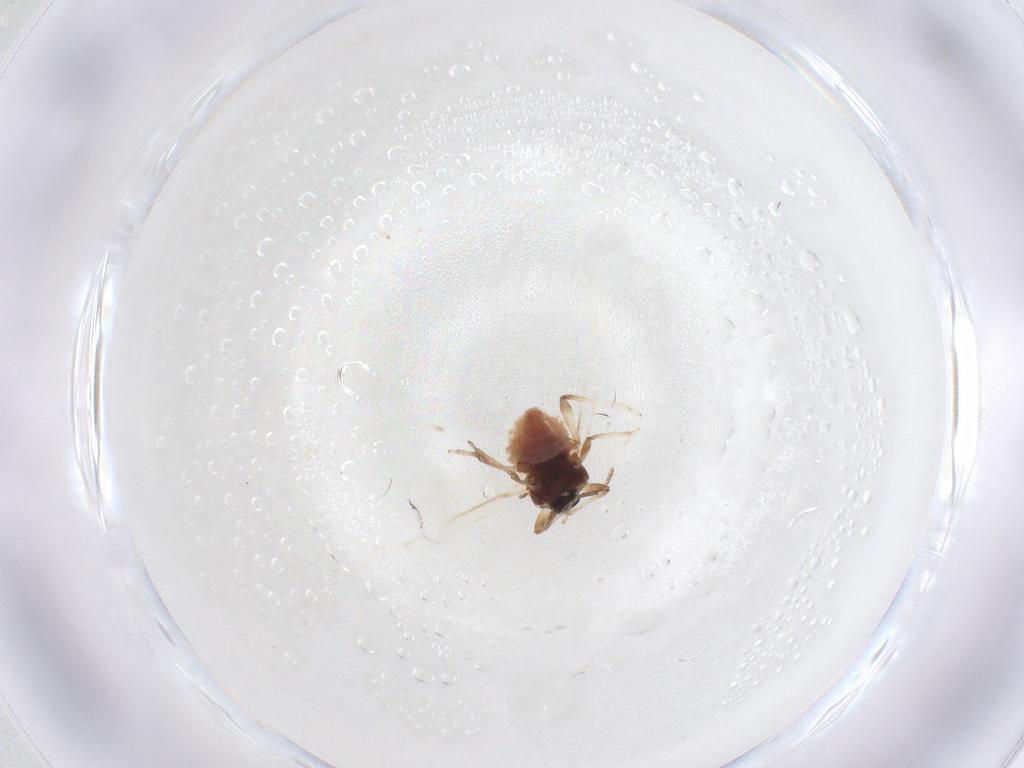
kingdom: Animalia
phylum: Arthropoda
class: Insecta
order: Hemiptera
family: Aphididae
